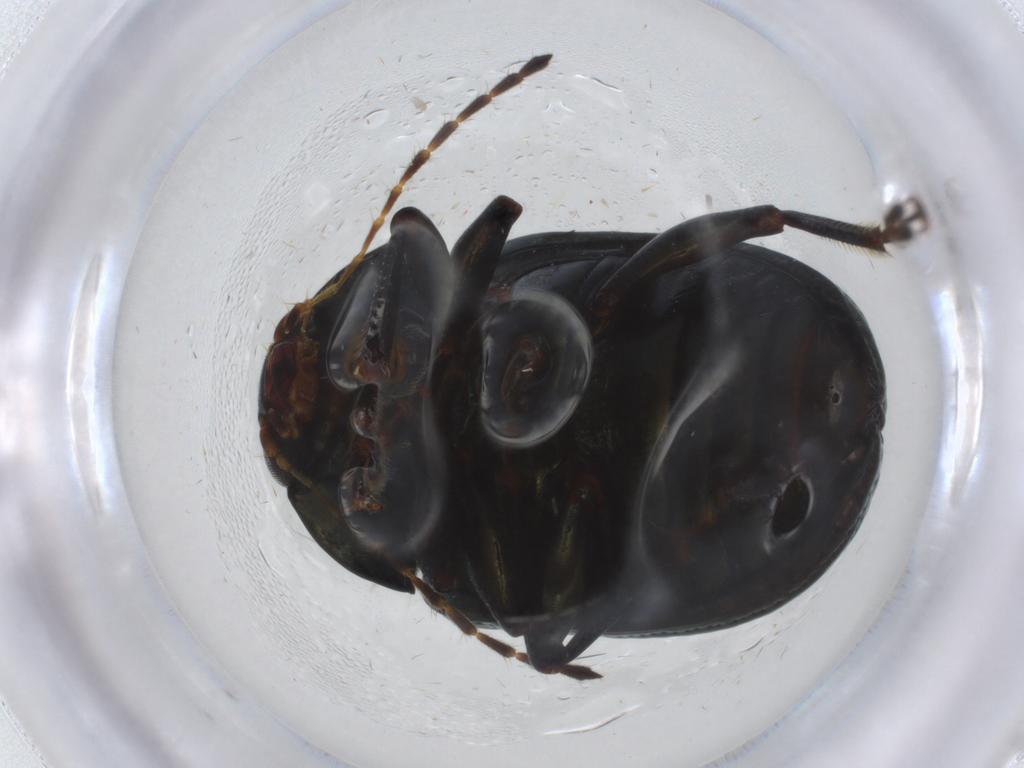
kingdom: Animalia
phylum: Arthropoda
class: Insecta
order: Coleoptera
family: Chrysomelidae
